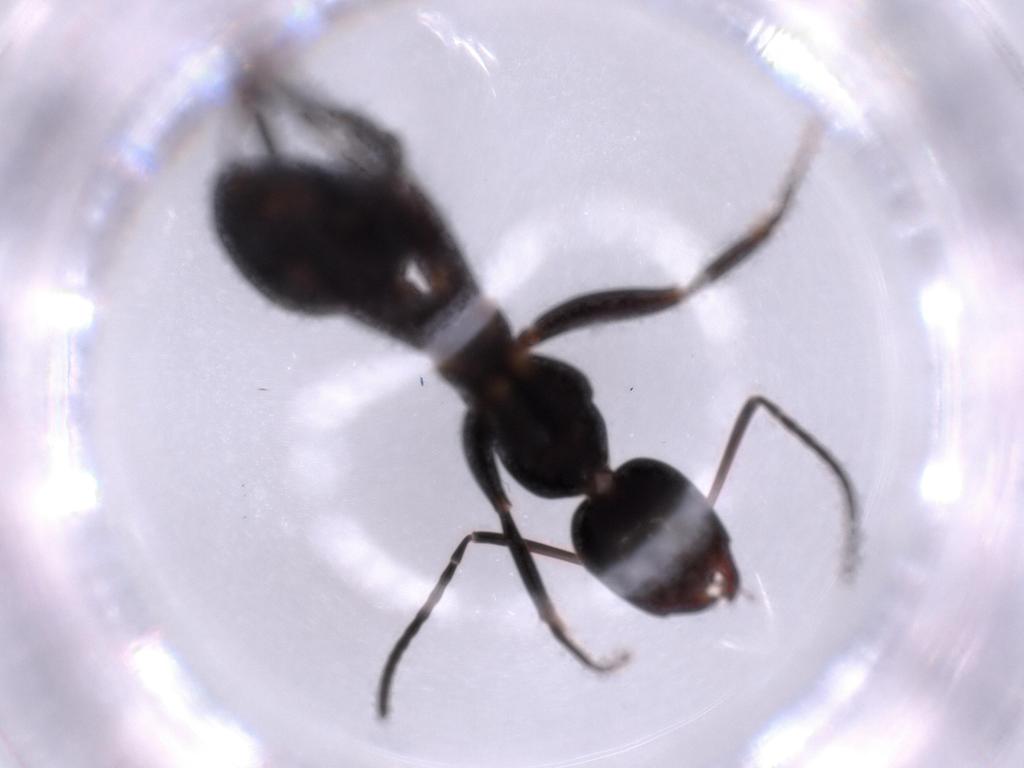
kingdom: Animalia
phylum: Arthropoda
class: Insecta
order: Hymenoptera
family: Formicidae
